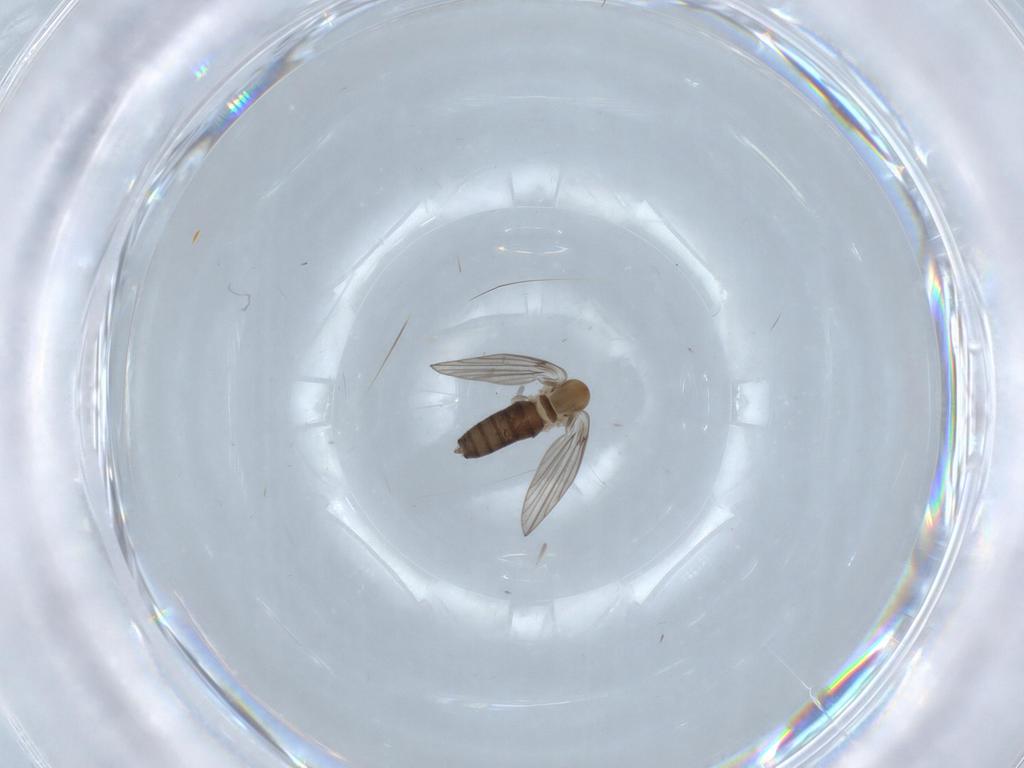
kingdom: Animalia
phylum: Arthropoda
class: Insecta
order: Diptera
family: Psychodidae
